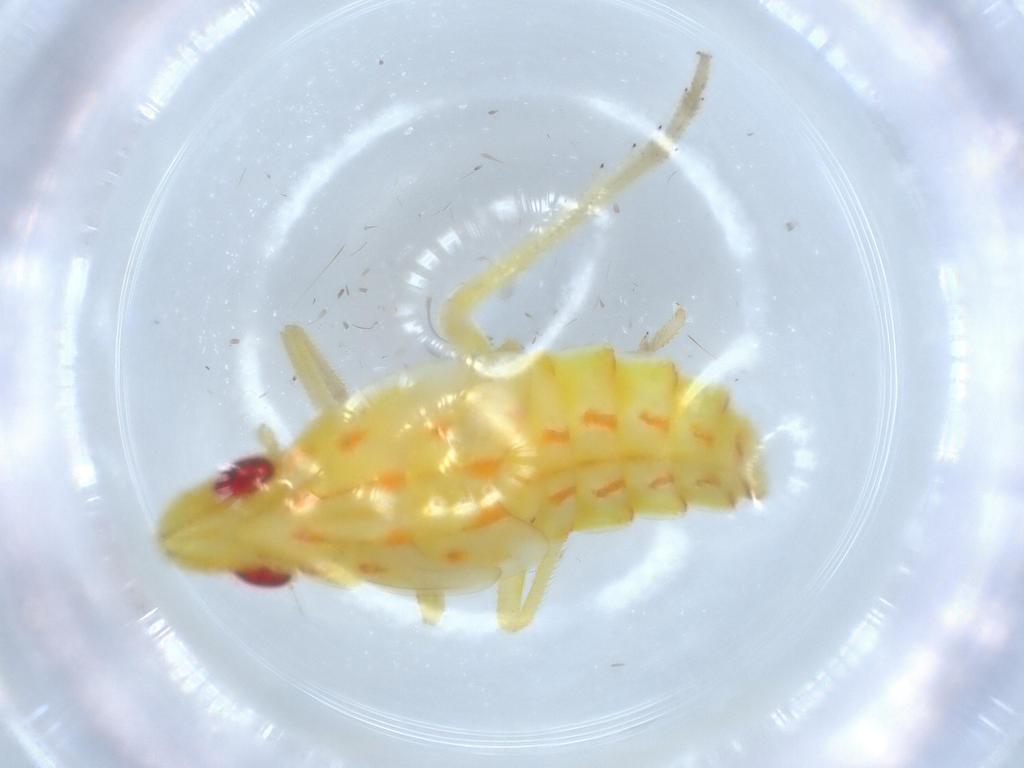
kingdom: Animalia
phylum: Arthropoda
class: Insecta
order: Hemiptera
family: Tropiduchidae
